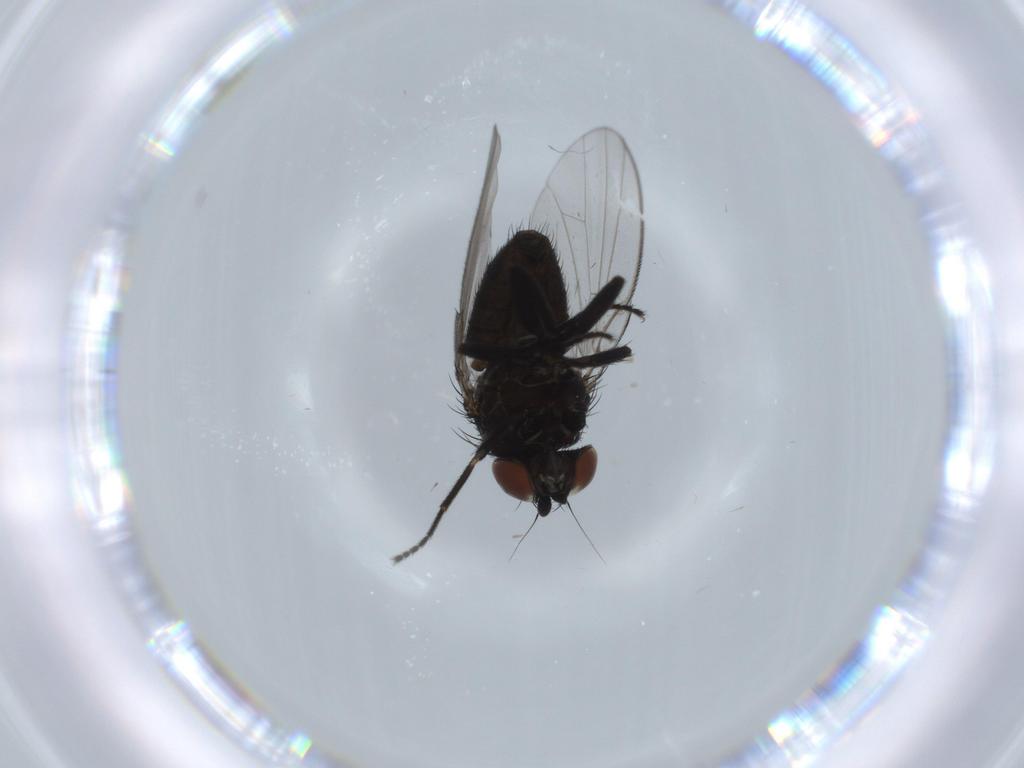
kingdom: Animalia
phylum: Arthropoda
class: Insecta
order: Diptera
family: Milichiidae
